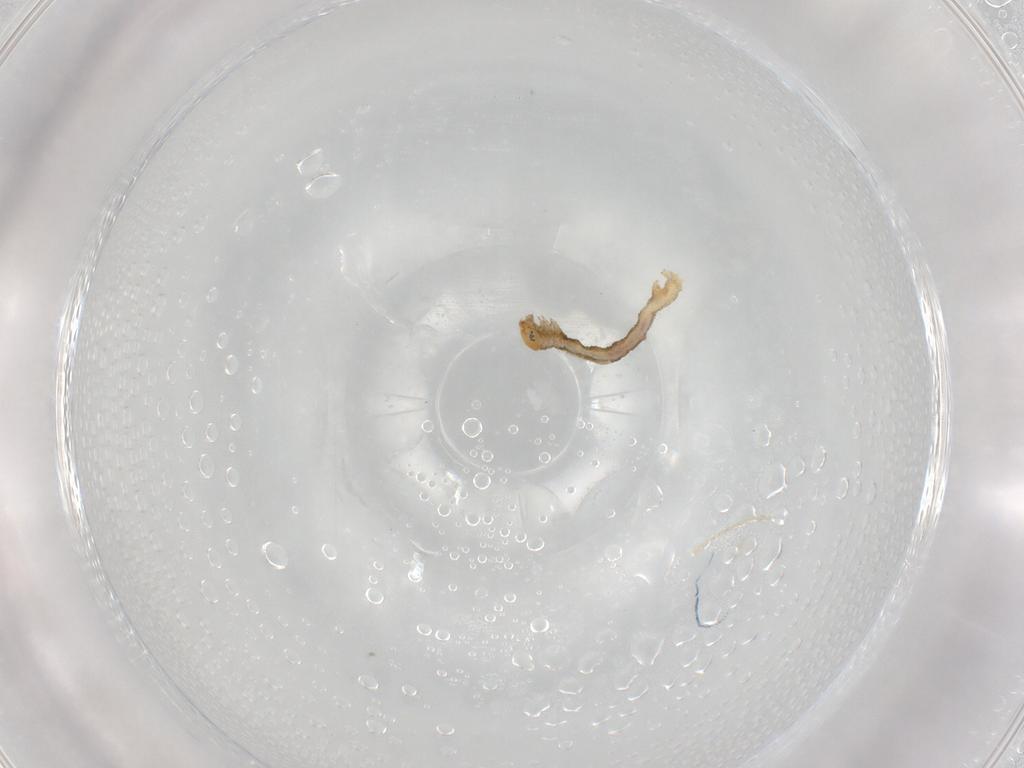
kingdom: Animalia
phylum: Arthropoda
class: Insecta
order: Lepidoptera
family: Geometridae
